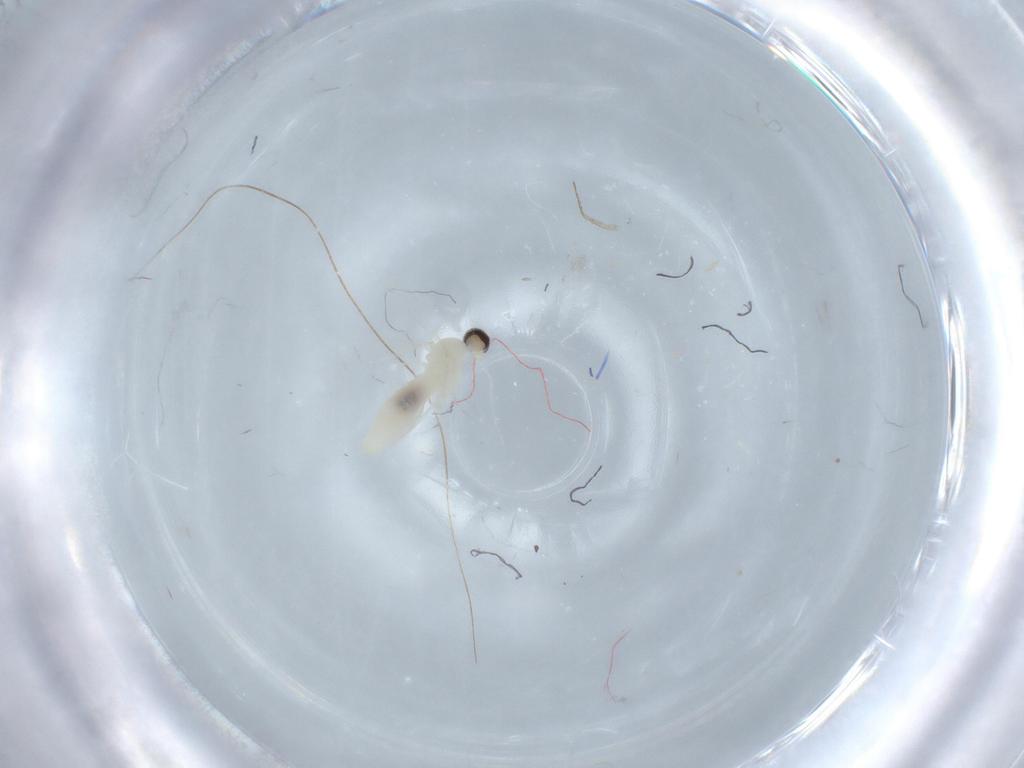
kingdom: Animalia
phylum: Arthropoda
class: Insecta
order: Diptera
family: Cecidomyiidae
